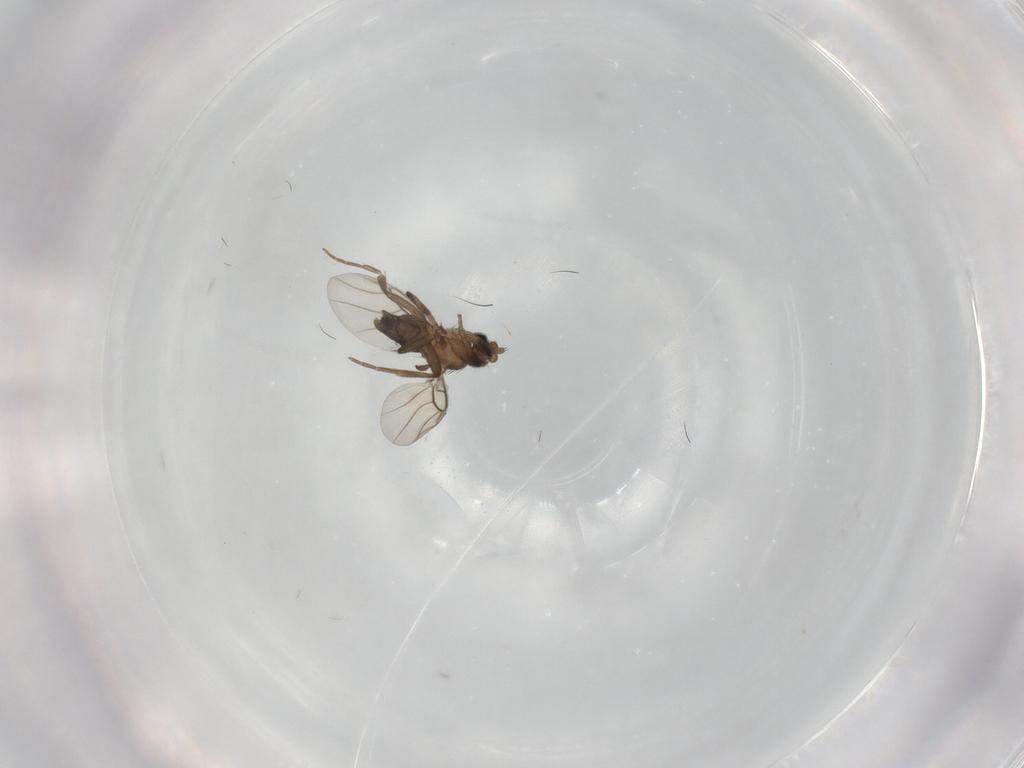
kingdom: Animalia
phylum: Arthropoda
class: Insecta
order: Diptera
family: Phoridae
